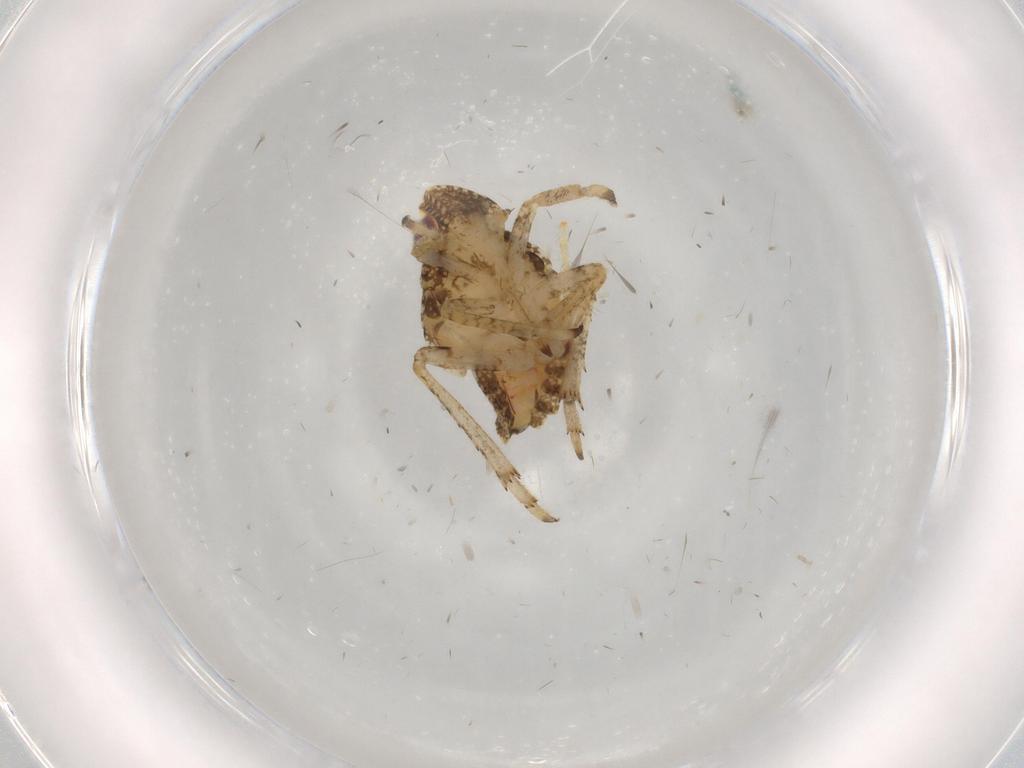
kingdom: Animalia
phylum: Arthropoda
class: Insecta
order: Hemiptera
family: Issidae
